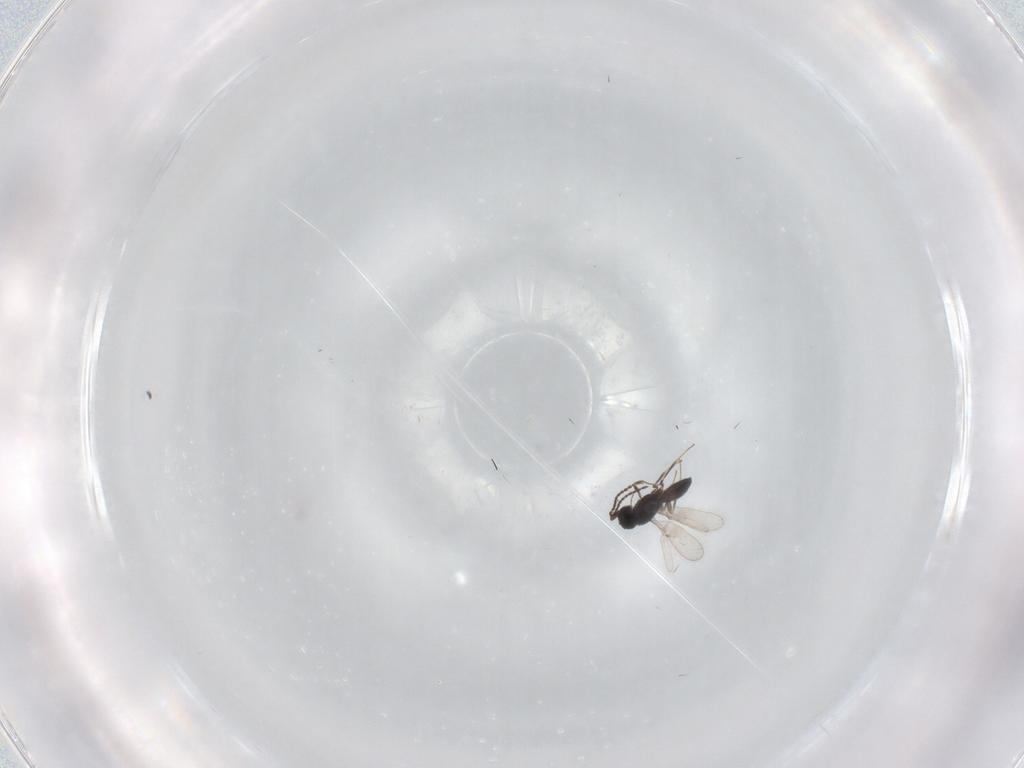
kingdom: Animalia
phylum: Arthropoda
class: Insecta
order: Hymenoptera
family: Scelionidae
